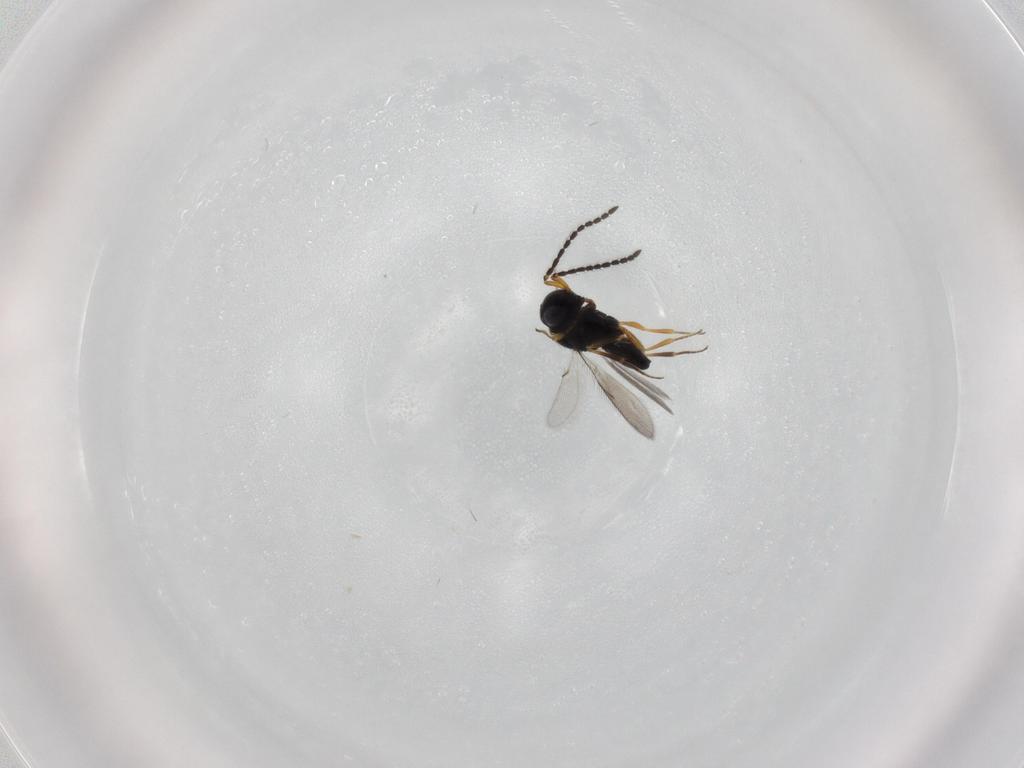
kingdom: Animalia
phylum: Arthropoda
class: Insecta
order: Hymenoptera
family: Scelionidae
